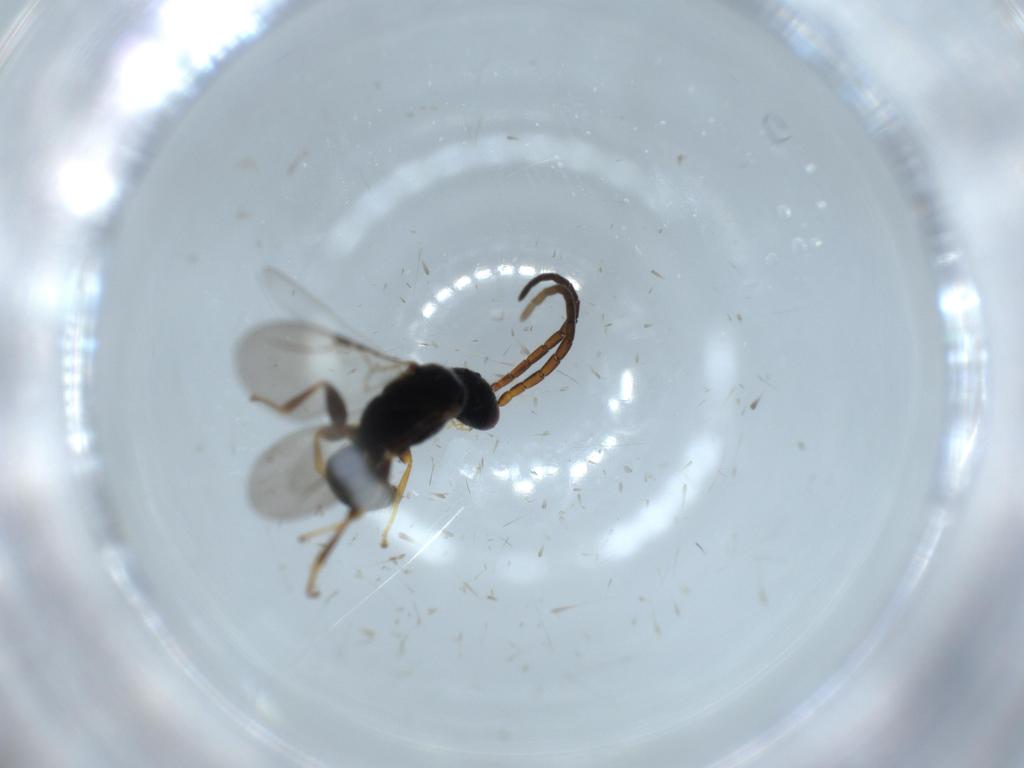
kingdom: Animalia
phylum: Arthropoda
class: Insecta
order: Hymenoptera
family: Bethylidae
